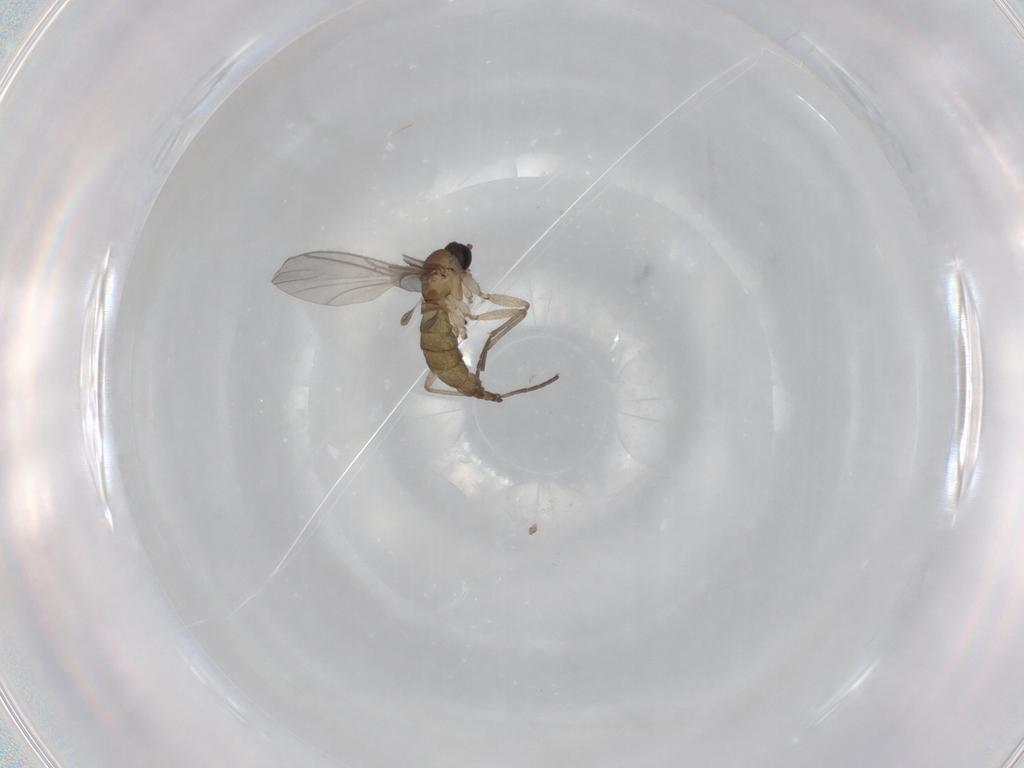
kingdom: Animalia
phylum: Arthropoda
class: Insecta
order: Diptera
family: Sciaridae
